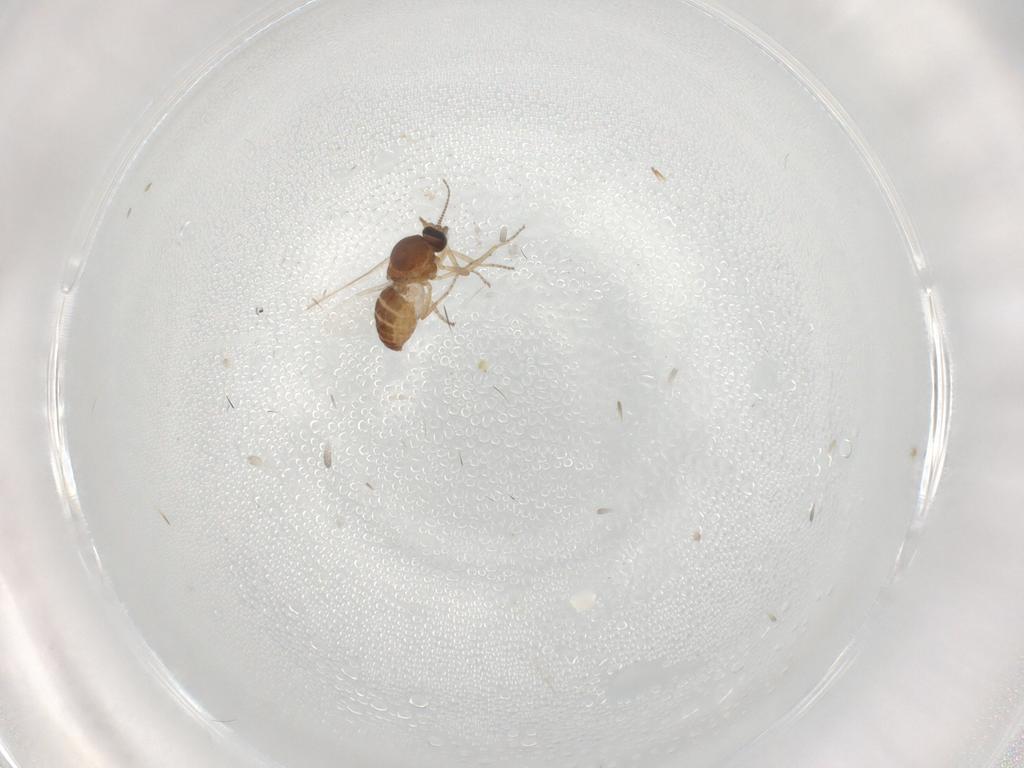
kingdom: Animalia
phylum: Arthropoda
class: Insecta
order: Diptera
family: Ceratopogonidae
